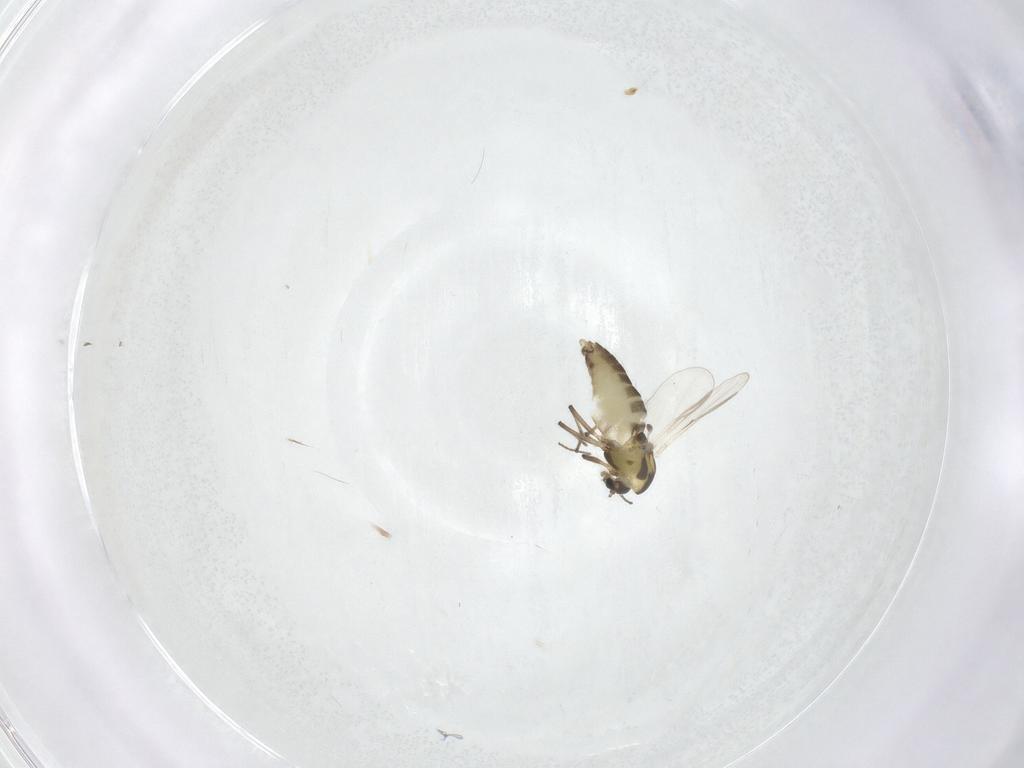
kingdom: Animalia
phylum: Arthropoda
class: Insecta
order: Diptera
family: Chironomidae
